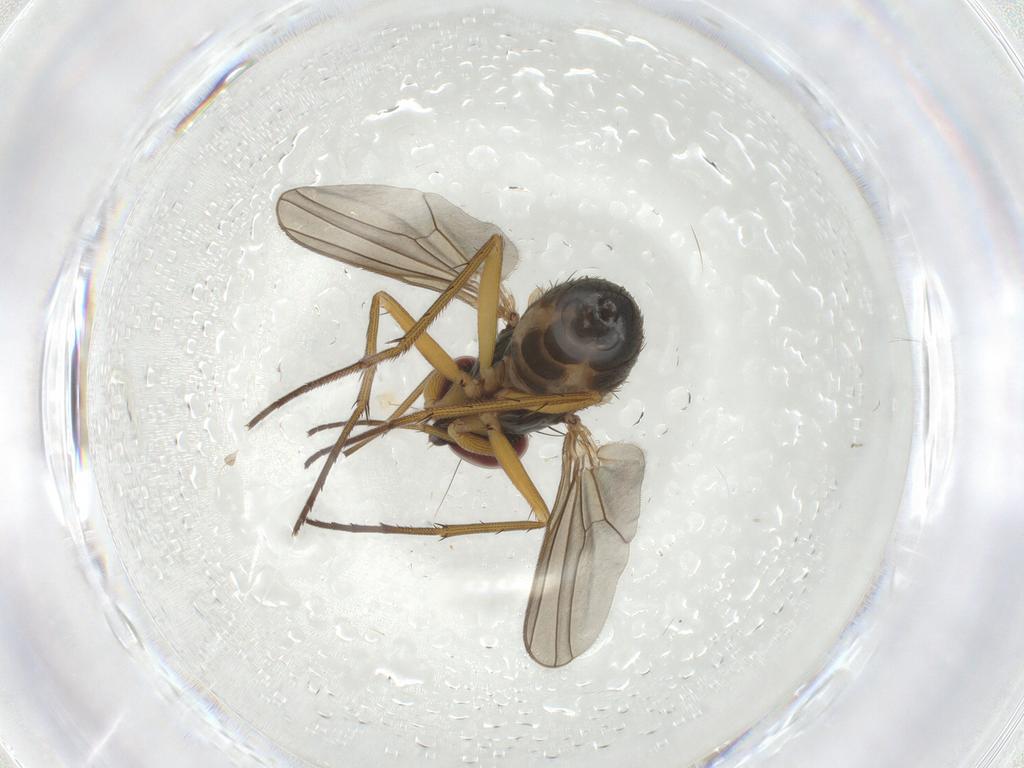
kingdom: Animalia
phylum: Arthropoda
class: Insecta
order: Diptera
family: Dolichopodidae
